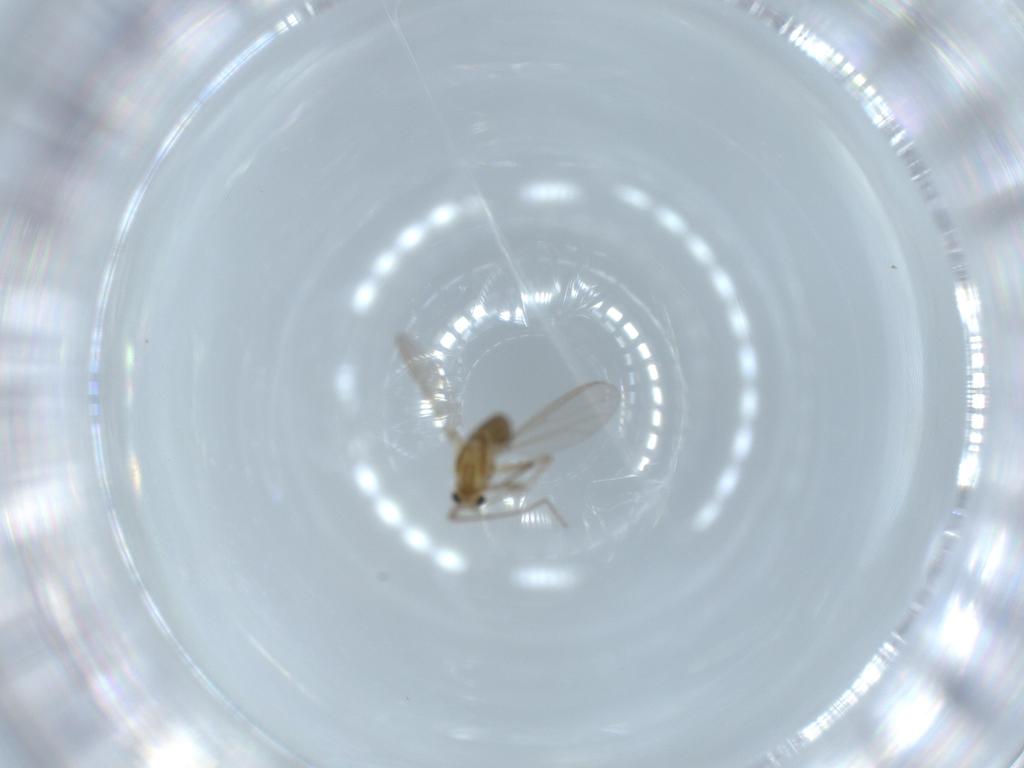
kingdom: Animalia
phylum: Arthropoda
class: Insecta
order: Diptera
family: Chironomidae
